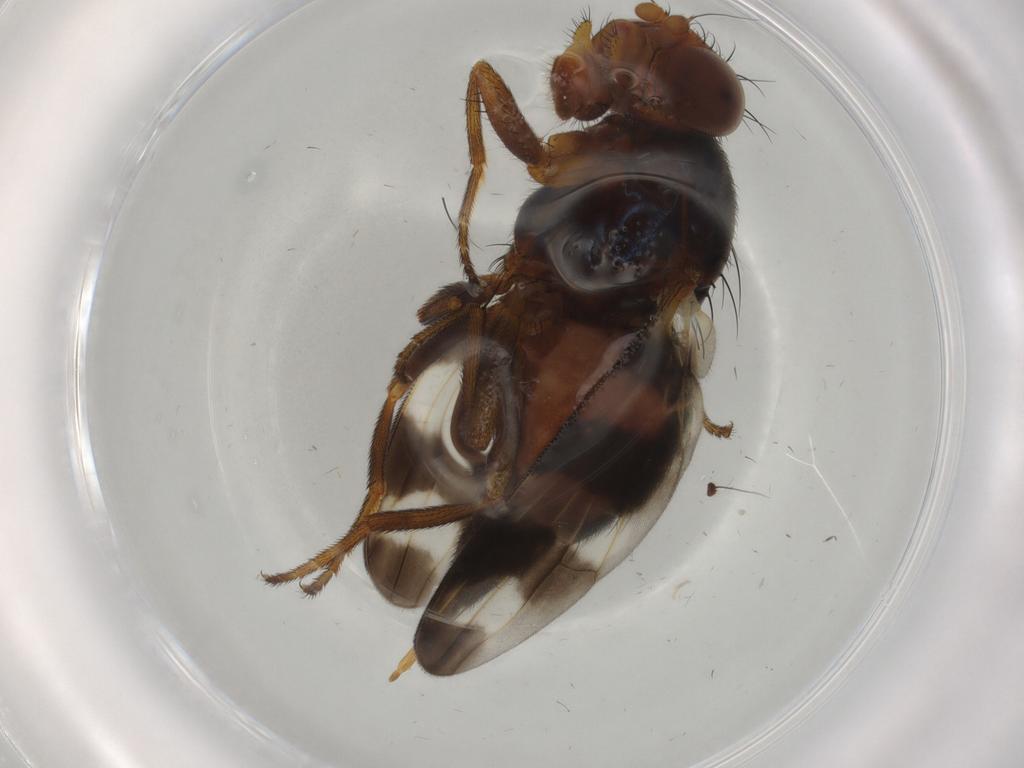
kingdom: Animalia
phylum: Arthropoda
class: Insecta
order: Diptera
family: Ulidiidae
